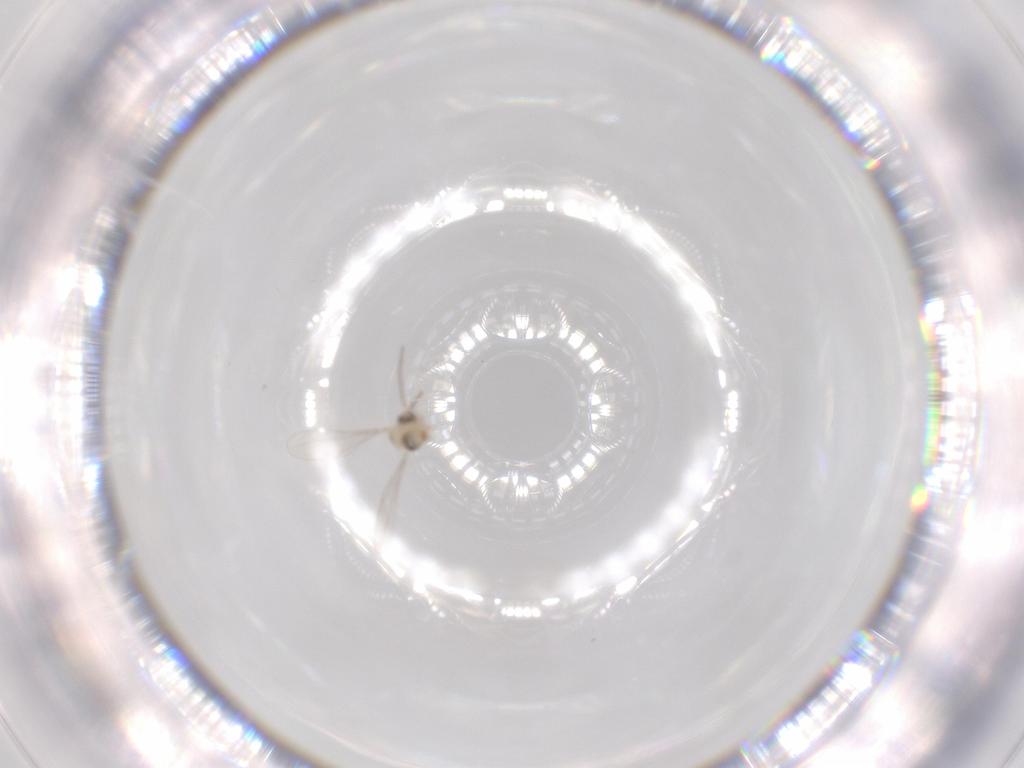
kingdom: Animalia
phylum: Arthropoda
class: Insecta
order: Diptera
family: Cecidomyiidae
